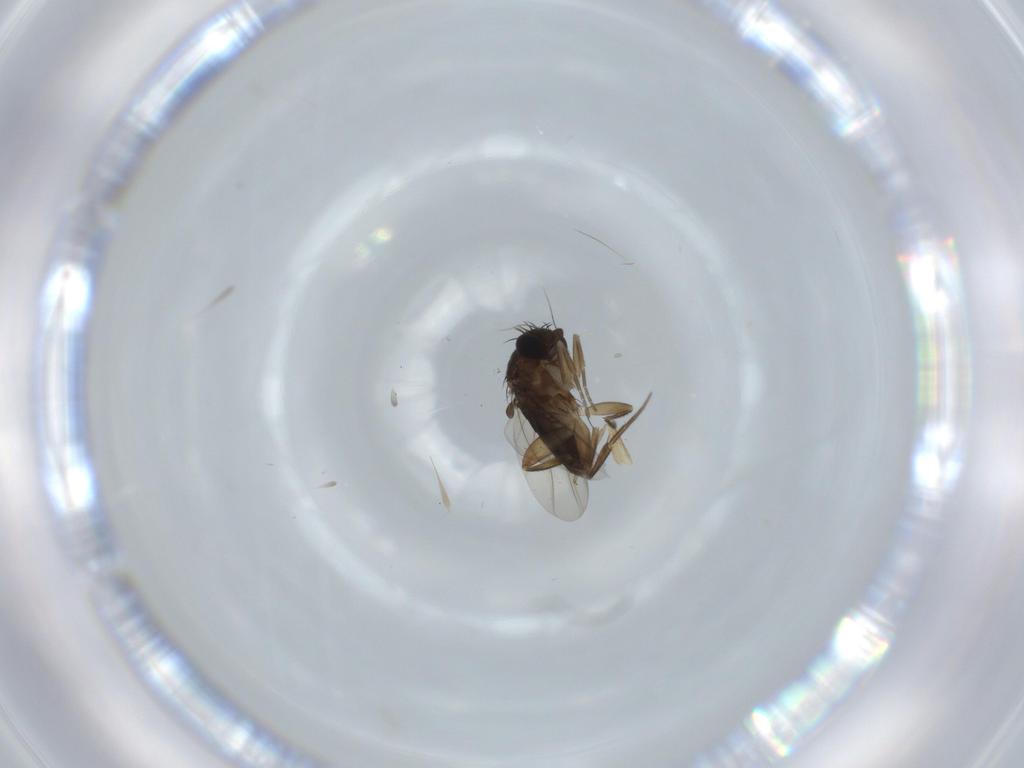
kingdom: Animalia
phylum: Arthropoda
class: Insecta
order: Diptera
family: Phoridae
